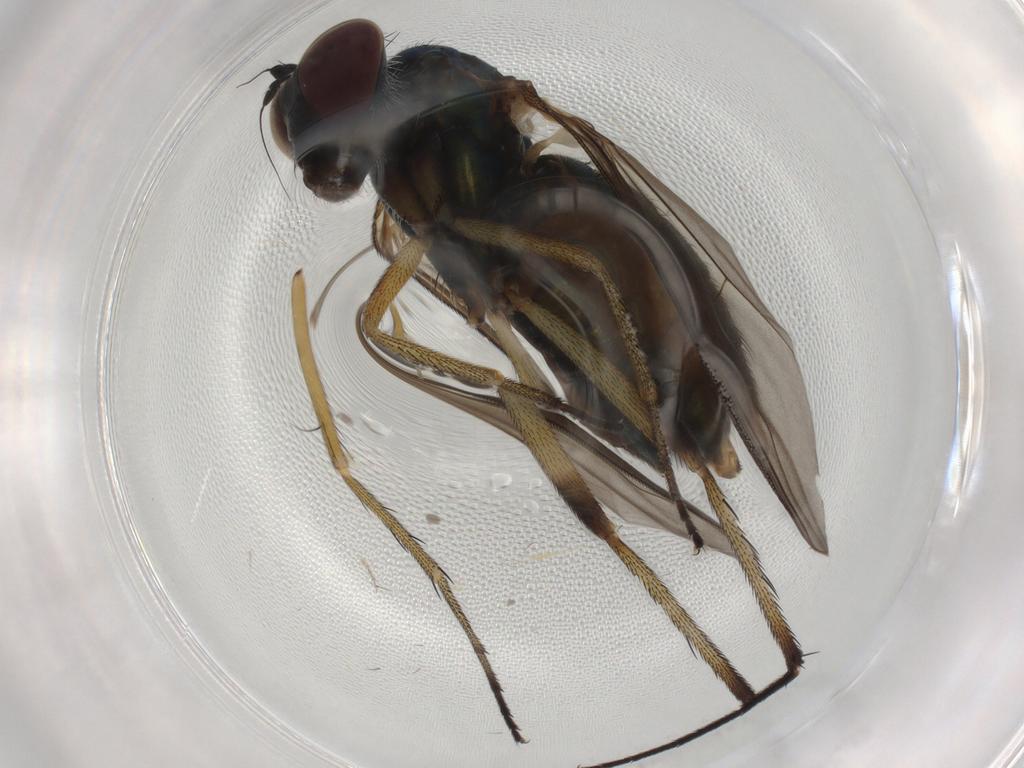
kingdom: Animalia
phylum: Arthropoda
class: Insecta
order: Diptera
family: Dolichopodidae
